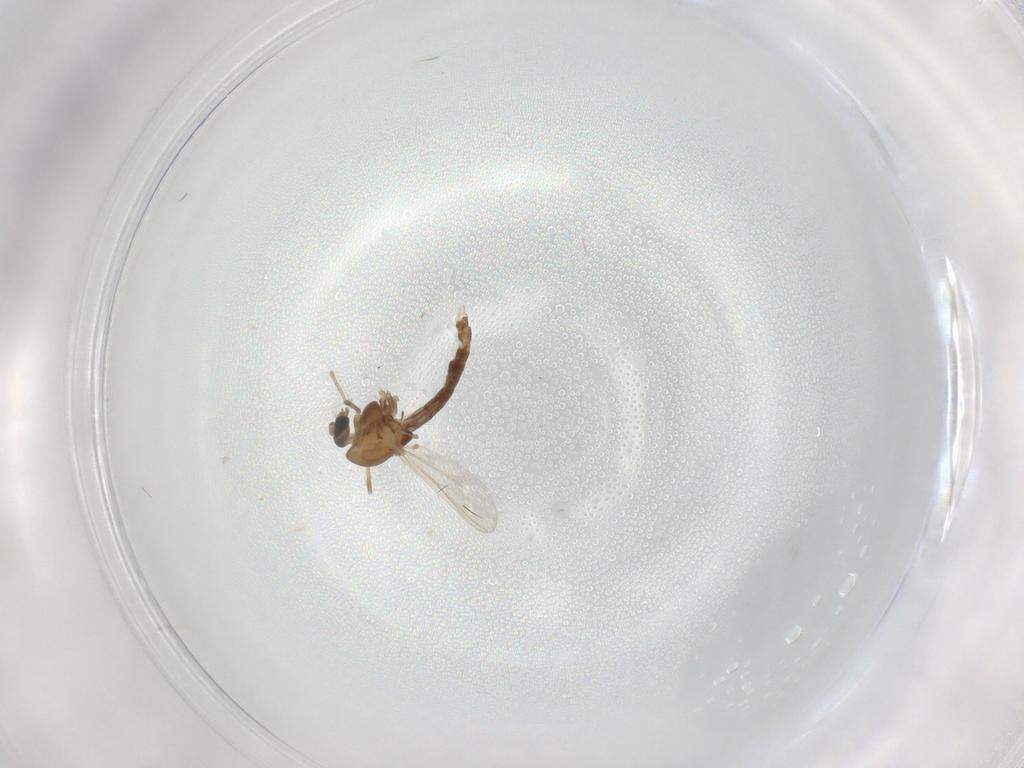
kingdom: Animalia
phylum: Arthropoda
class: Insecta
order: Diptera
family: Chironomidae
